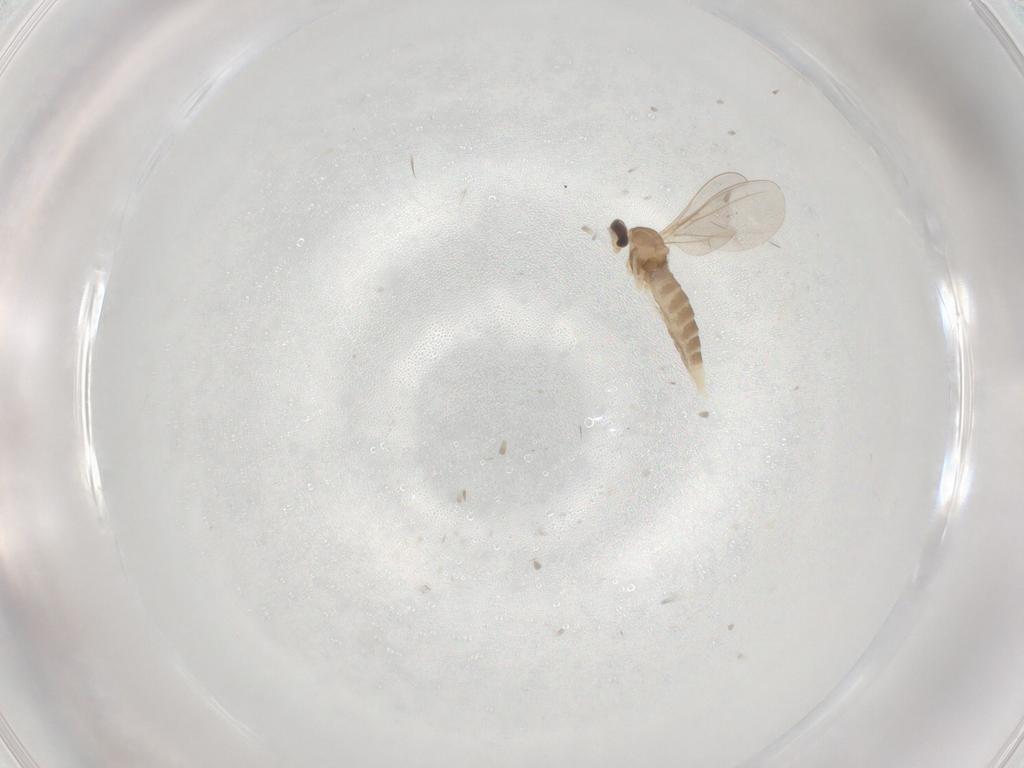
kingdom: Animalia
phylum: Arthropoda
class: Insecta
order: Diptera
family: Cecidomyiidae
